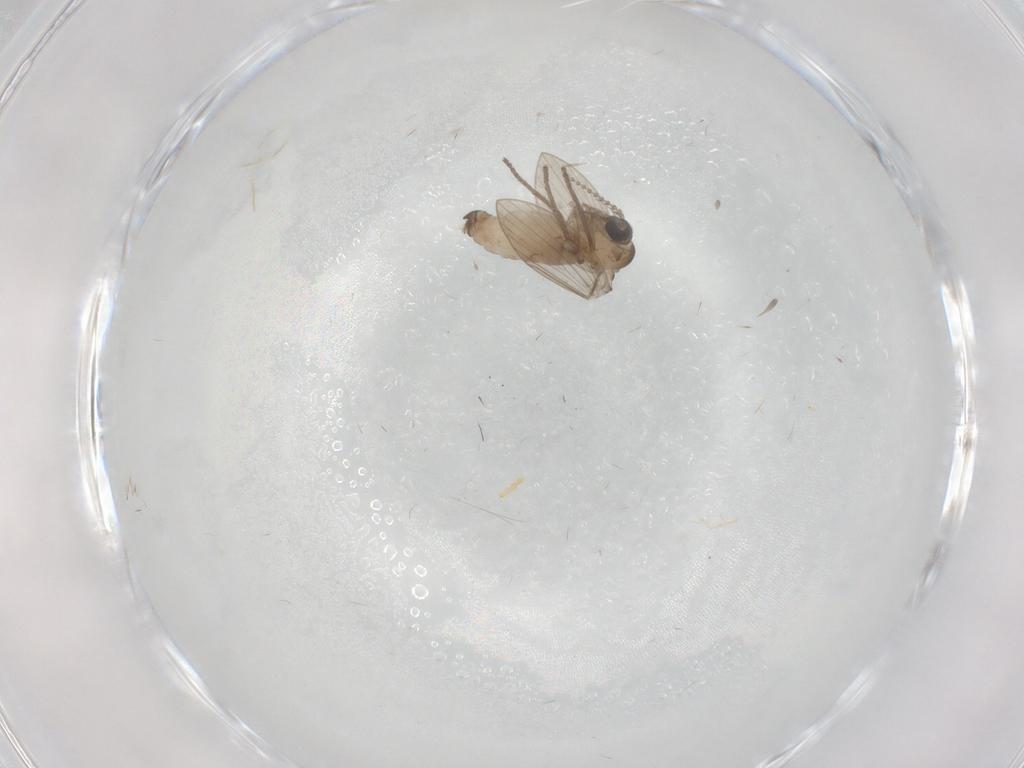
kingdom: Animalia
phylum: Arthropoda
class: Insecta
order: Diptera
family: Psychodidae
